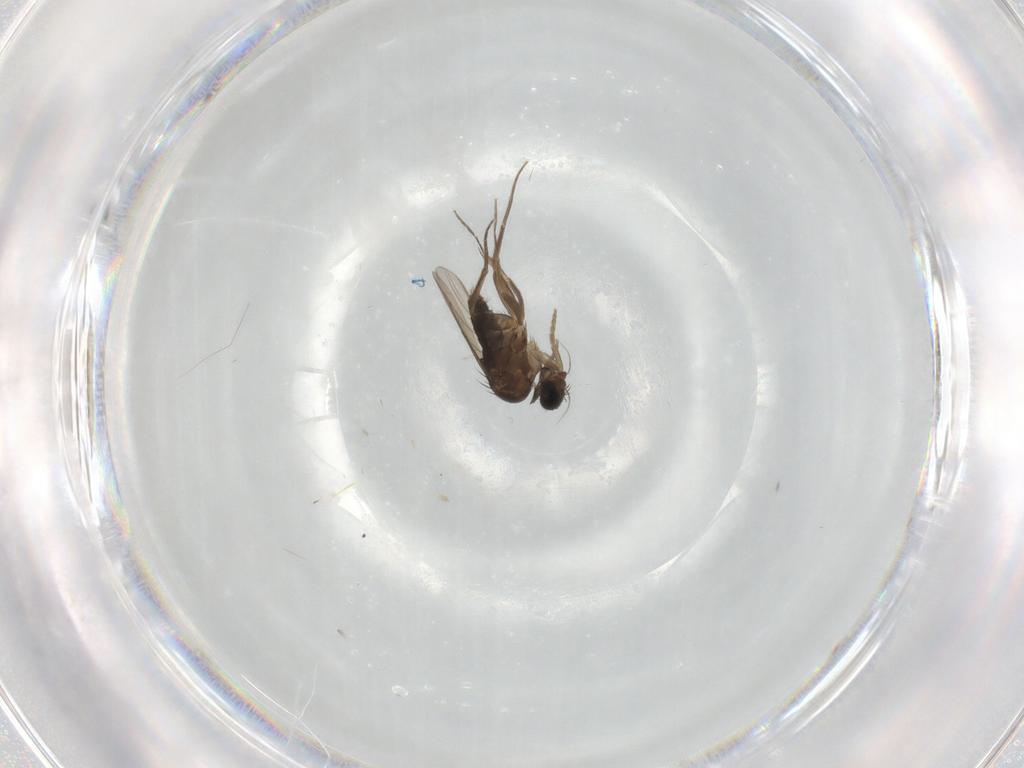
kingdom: Animalia
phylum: Arthropoda
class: Insecta
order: Diptera
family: Phoridae
